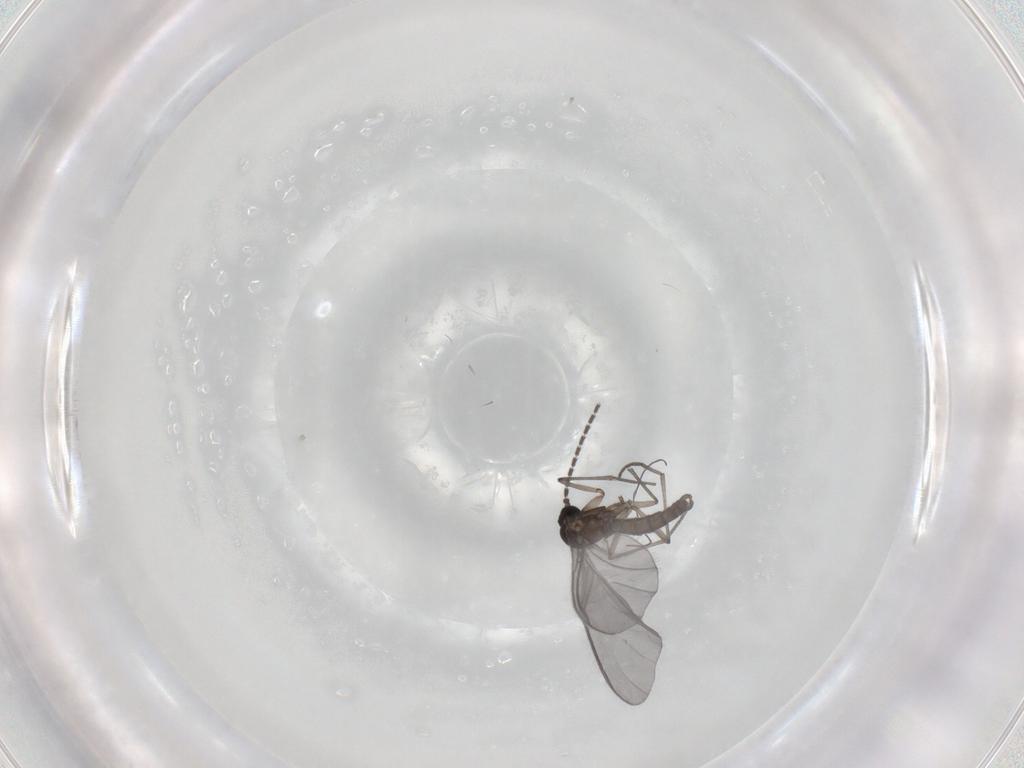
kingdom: Animalia
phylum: Arthropoda
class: Insecta
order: Diptera
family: Sciaridae
